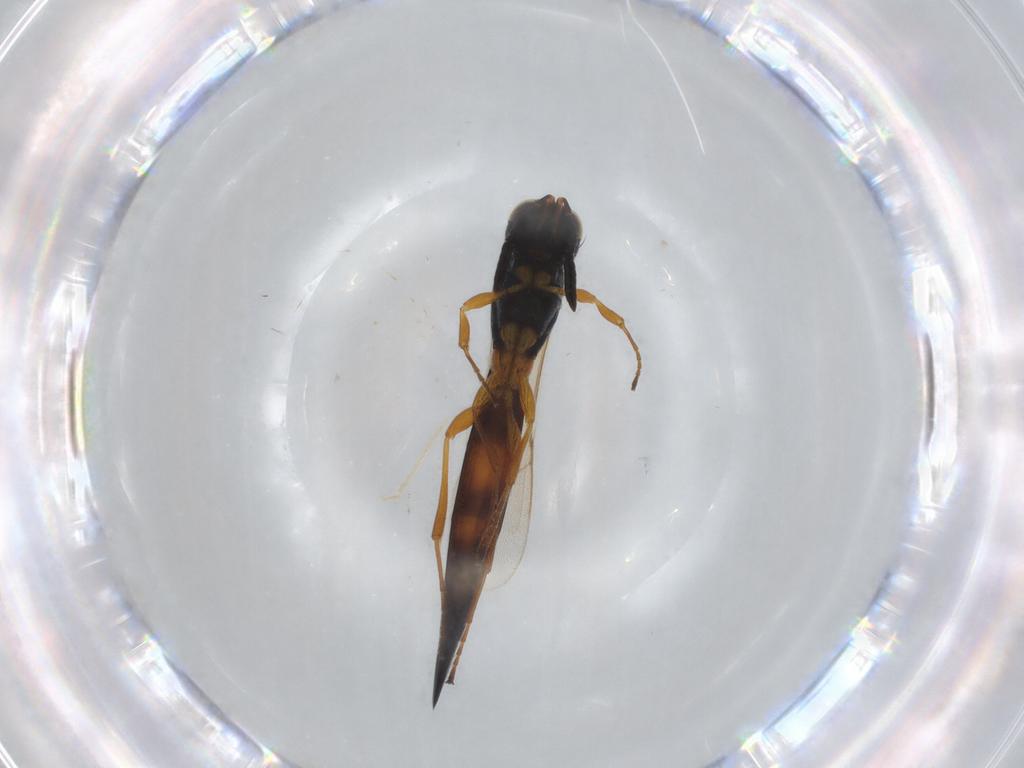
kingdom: Animalia
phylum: Arthropoda
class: Insecta
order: Hymenoptera
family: Scelionidae
